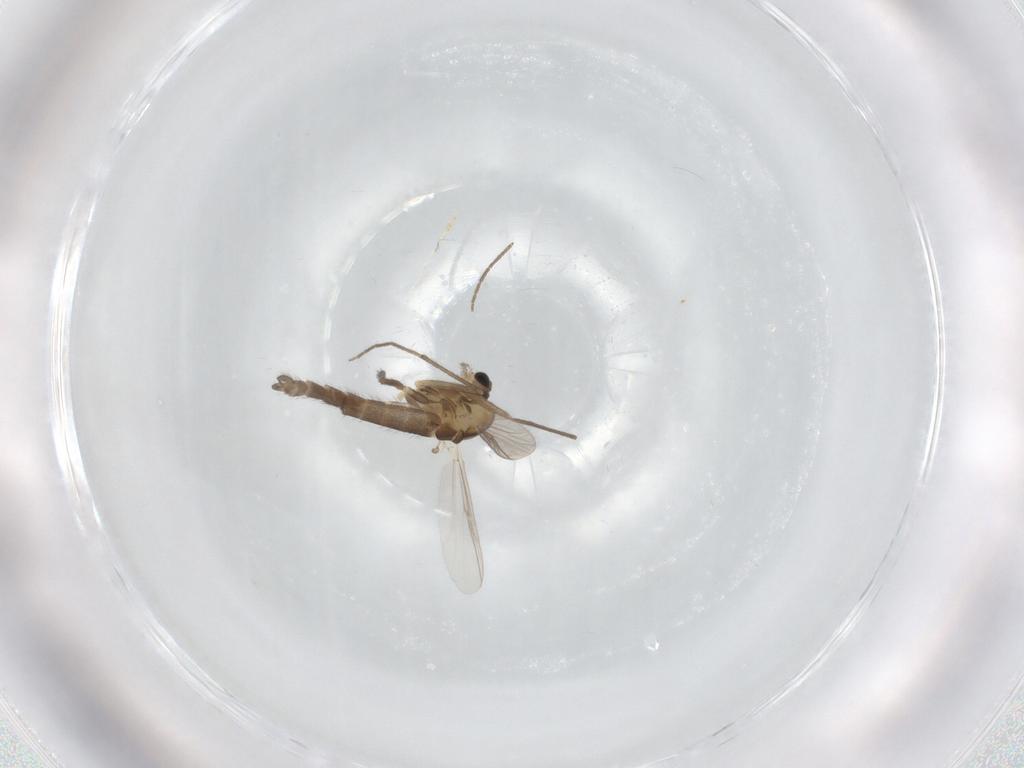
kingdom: Animalia
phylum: Arthropoda
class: Insecta
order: Diptera
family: Chironomidae
